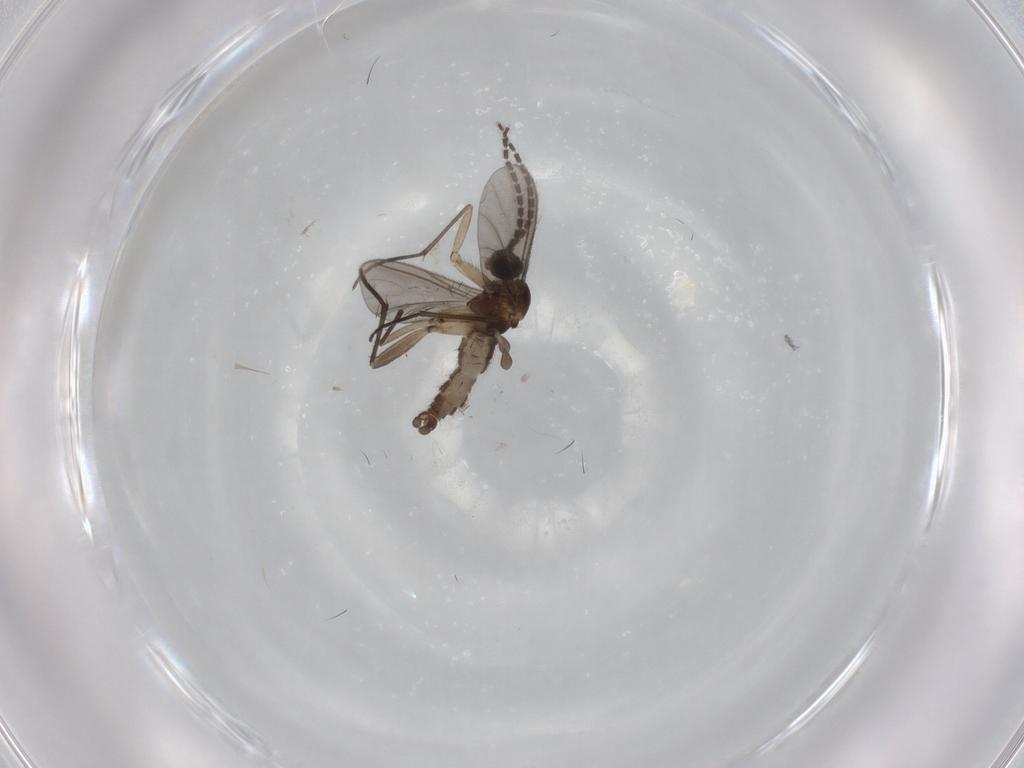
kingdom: Animalia
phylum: Arthropoda
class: Insecta
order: Diptera
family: Sciaridae
